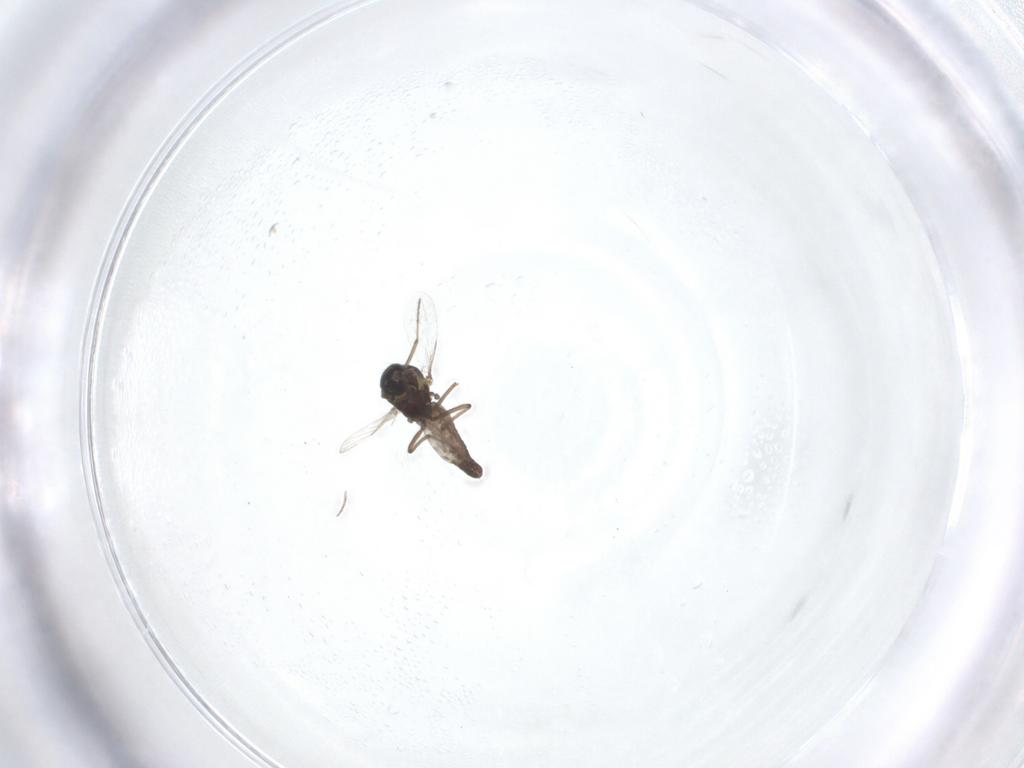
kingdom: Animalia
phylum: Arthropoda
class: Insecta
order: Diptera
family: Ceratopogonidae
